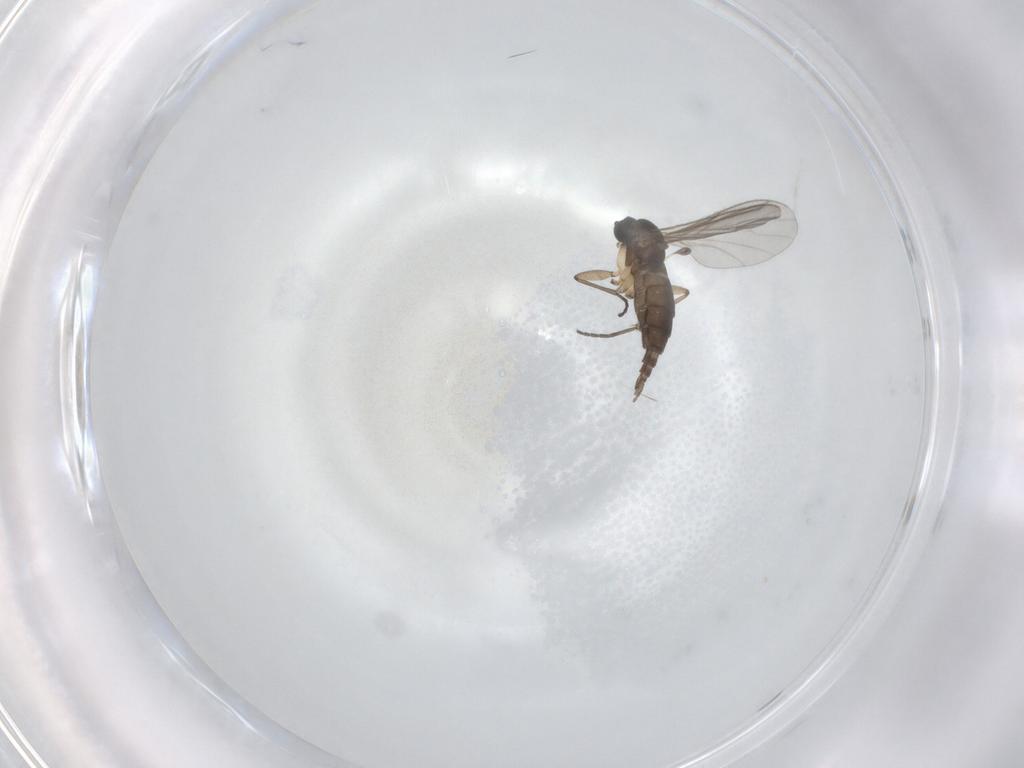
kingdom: Animalia
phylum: Arthropoda
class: Insecta
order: Diptera
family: Sciaridae
